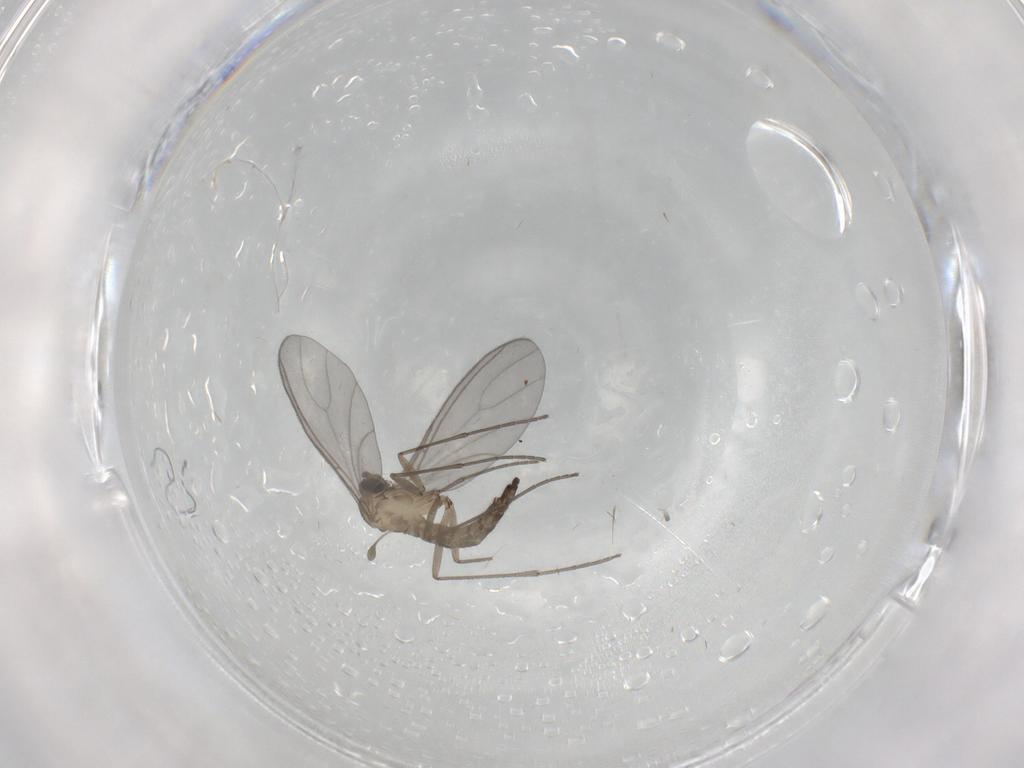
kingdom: Animalia
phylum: Arthropoda
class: Insecta
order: Diptera
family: Sciaridae
